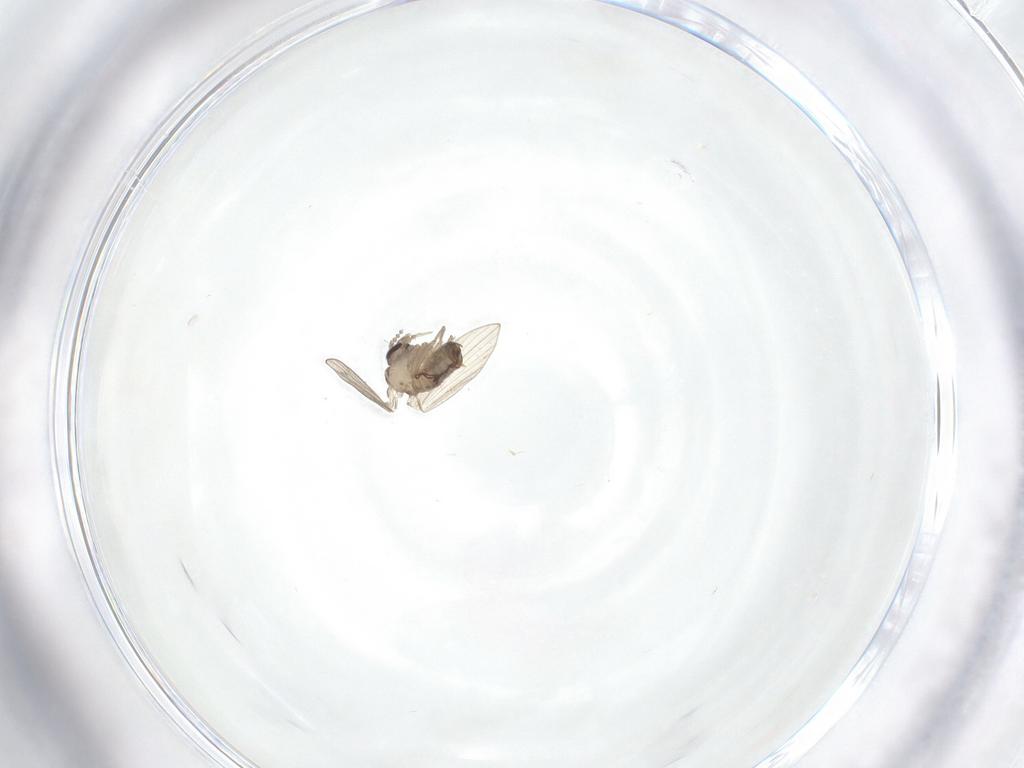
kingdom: Animalia
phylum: Arthropoda
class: Insecta
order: Diptera
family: Psychodidae
